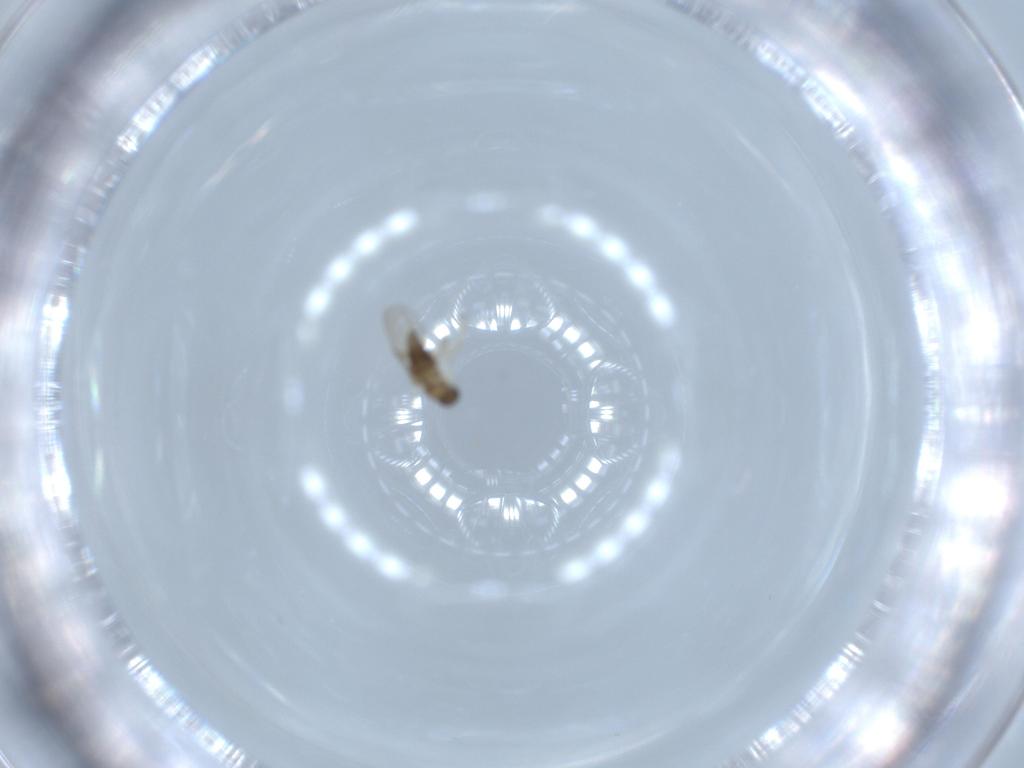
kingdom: Animalia
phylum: Arthropoda
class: Insecta
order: Diptera
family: Phoridae
